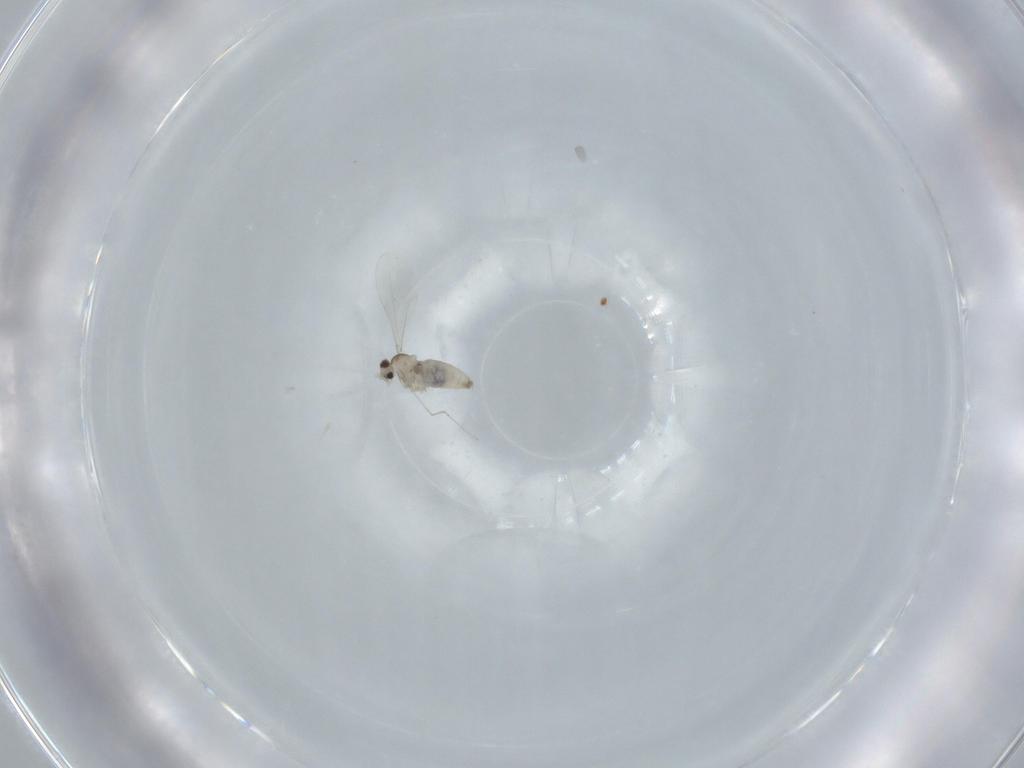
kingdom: Animalia
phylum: Arthropoda
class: Insecta
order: Diptera
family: Cecidomyiidae
